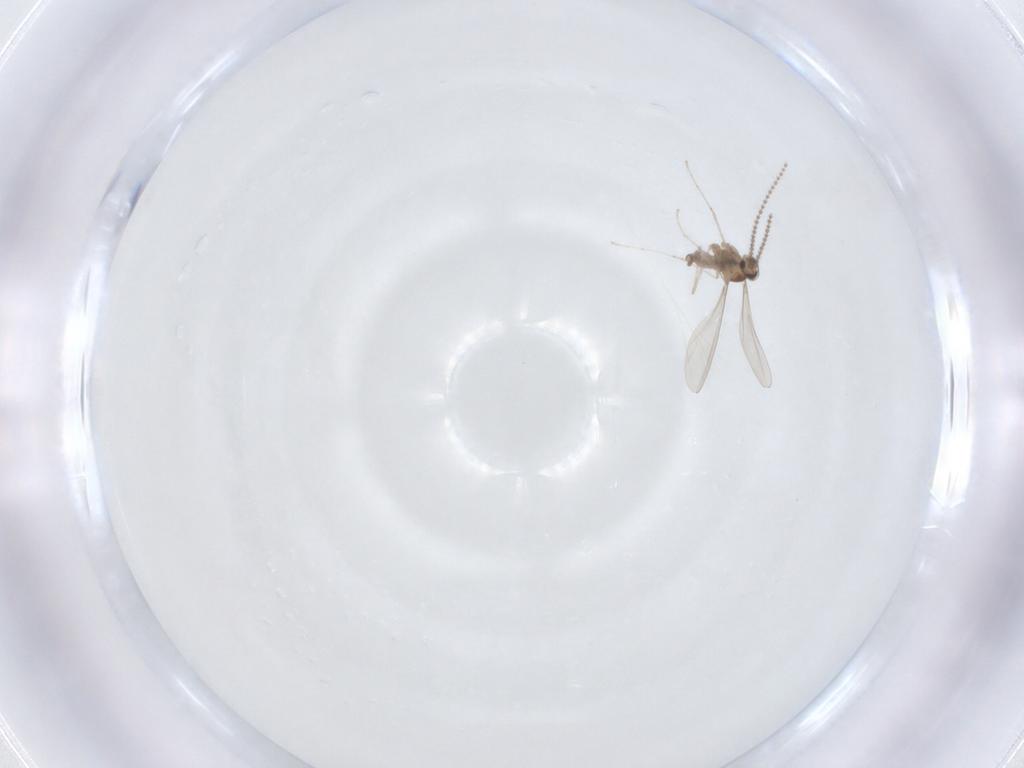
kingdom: Animalia
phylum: Arthropoda
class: Insecta
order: Diptera
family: Cecidomyiidae
